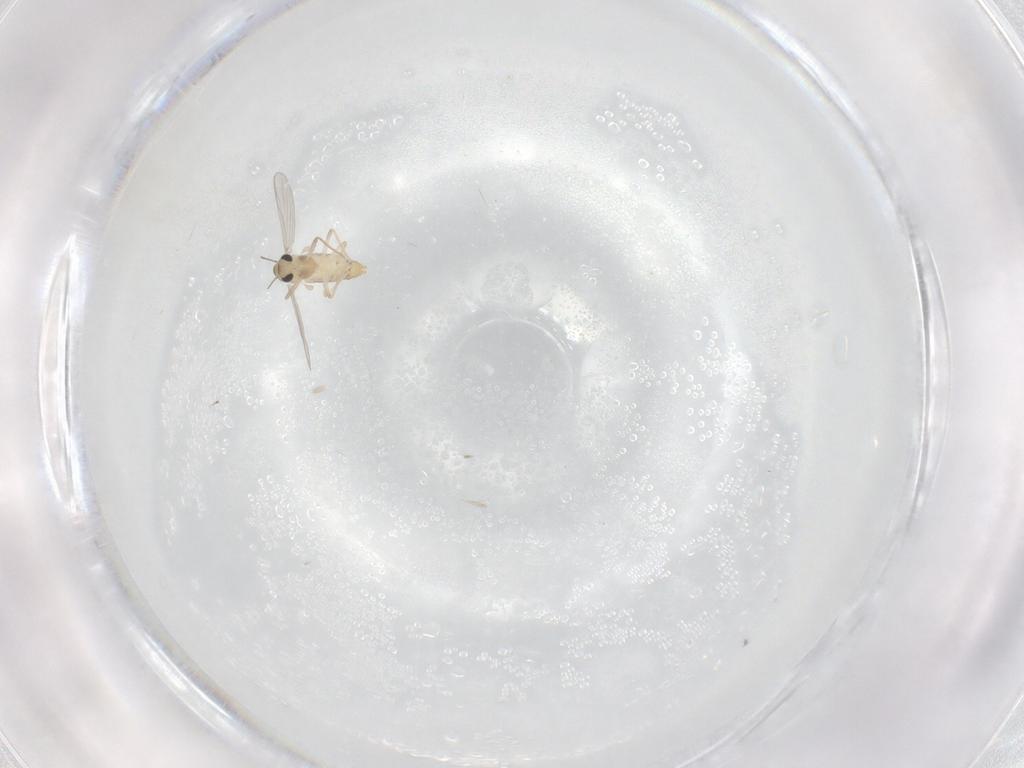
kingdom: Animalia
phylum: Arthropoda
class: Insecta
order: Diptera
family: Chironomidae
